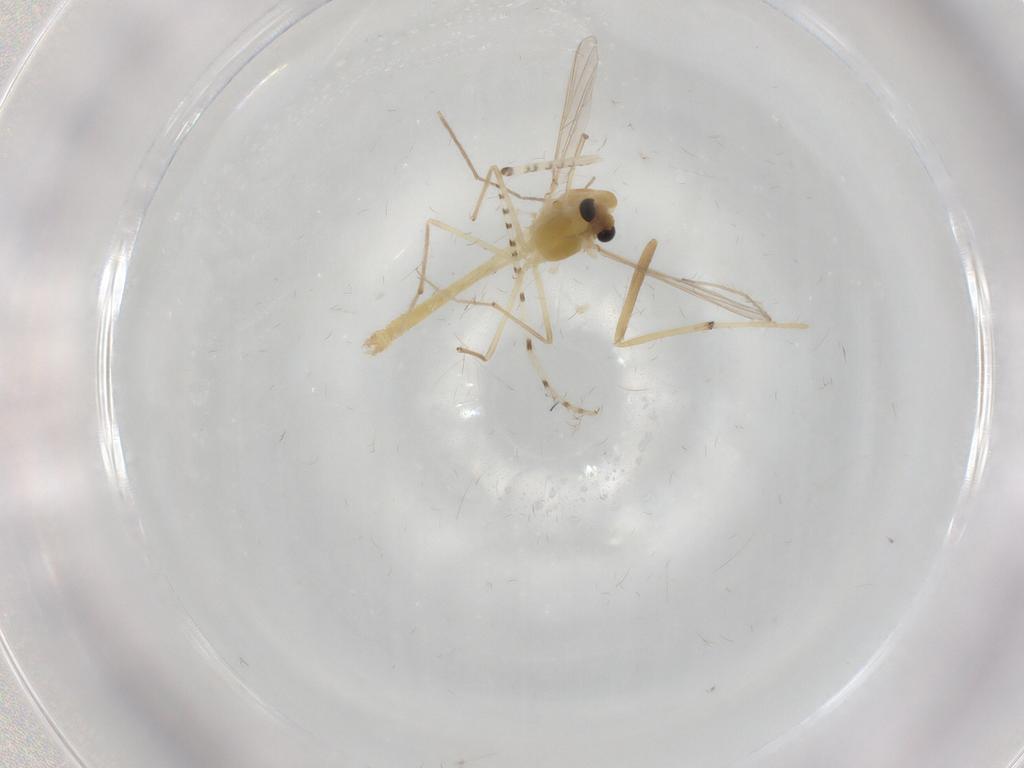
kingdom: Animalia
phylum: Arthropoda
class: Insecta
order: Diptera
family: Chironomidae
